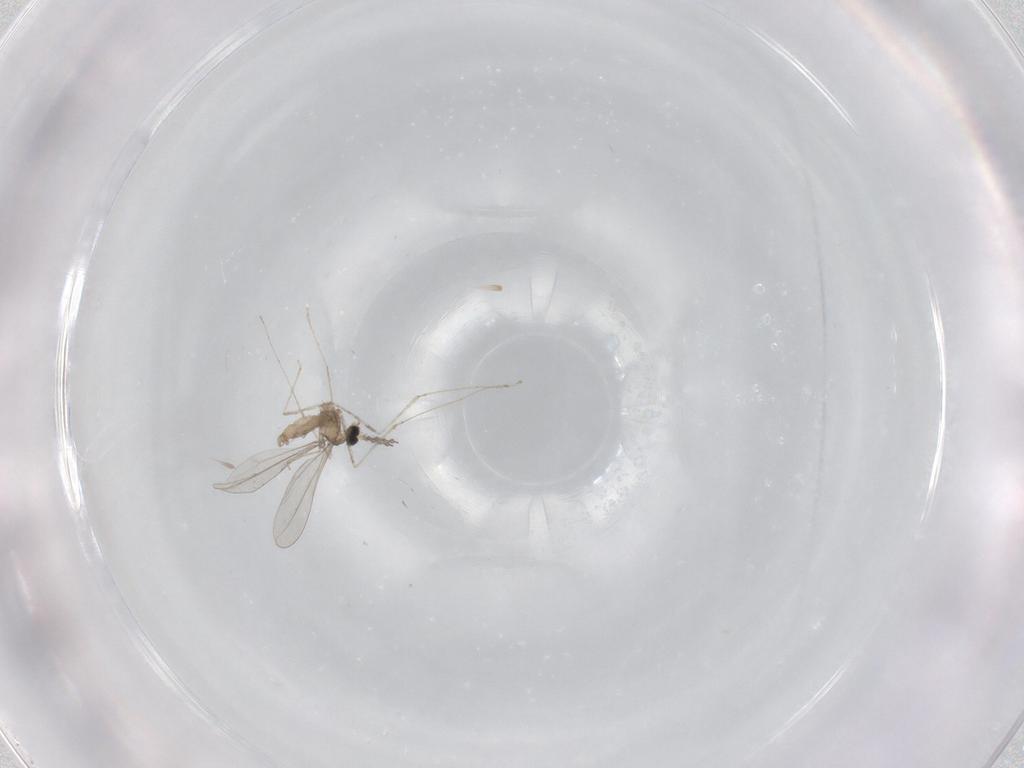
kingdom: Animalia
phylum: Arthropoda
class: Insecta
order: Diptera
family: Cecidomyiidae
